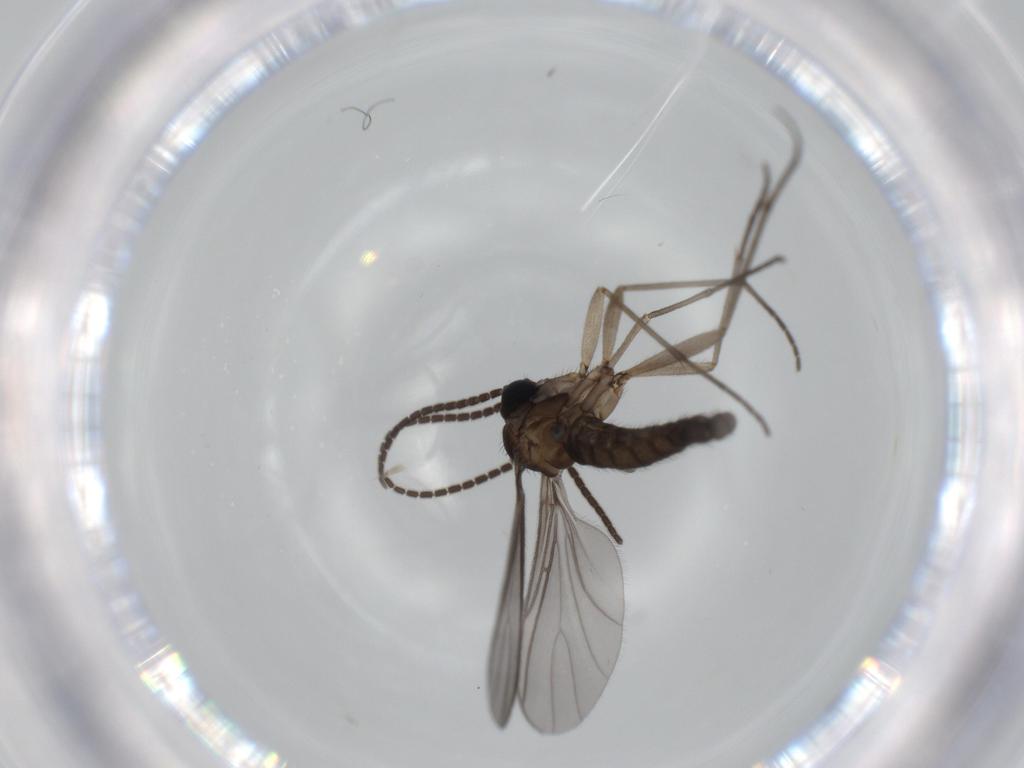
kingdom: Animalia
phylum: Arthropoda
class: Insecta
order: Diptera
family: Sciaridae
